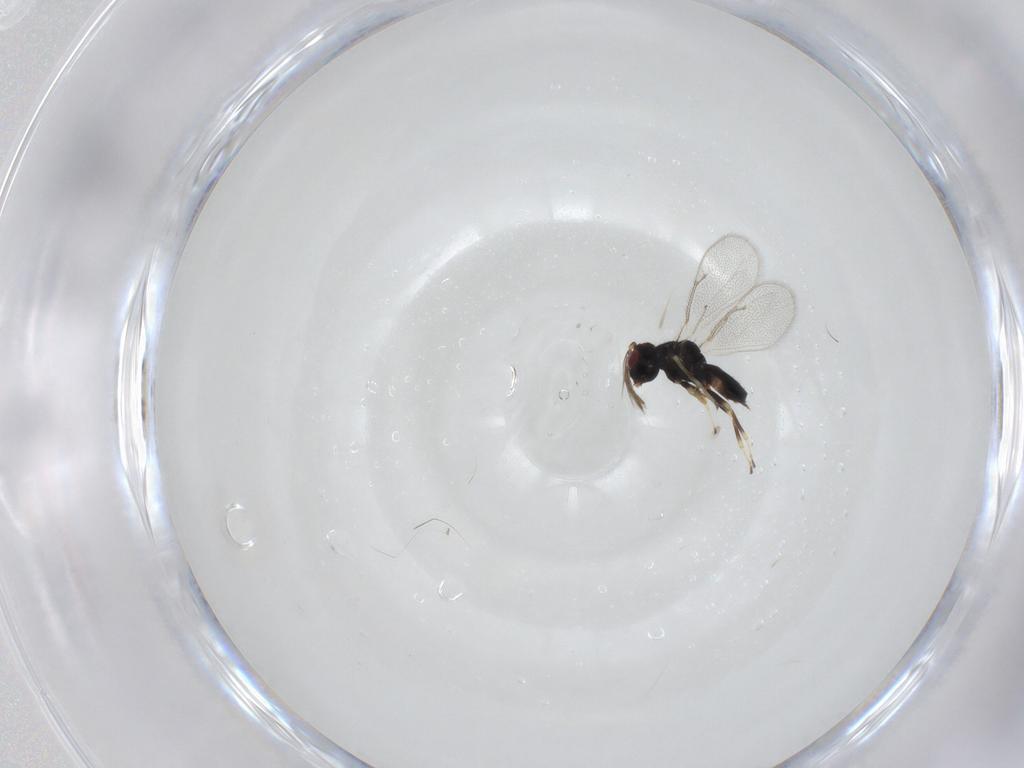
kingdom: Animalia
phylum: Arthropoda
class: Insecta
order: Hymenoptera
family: Eulophidae
